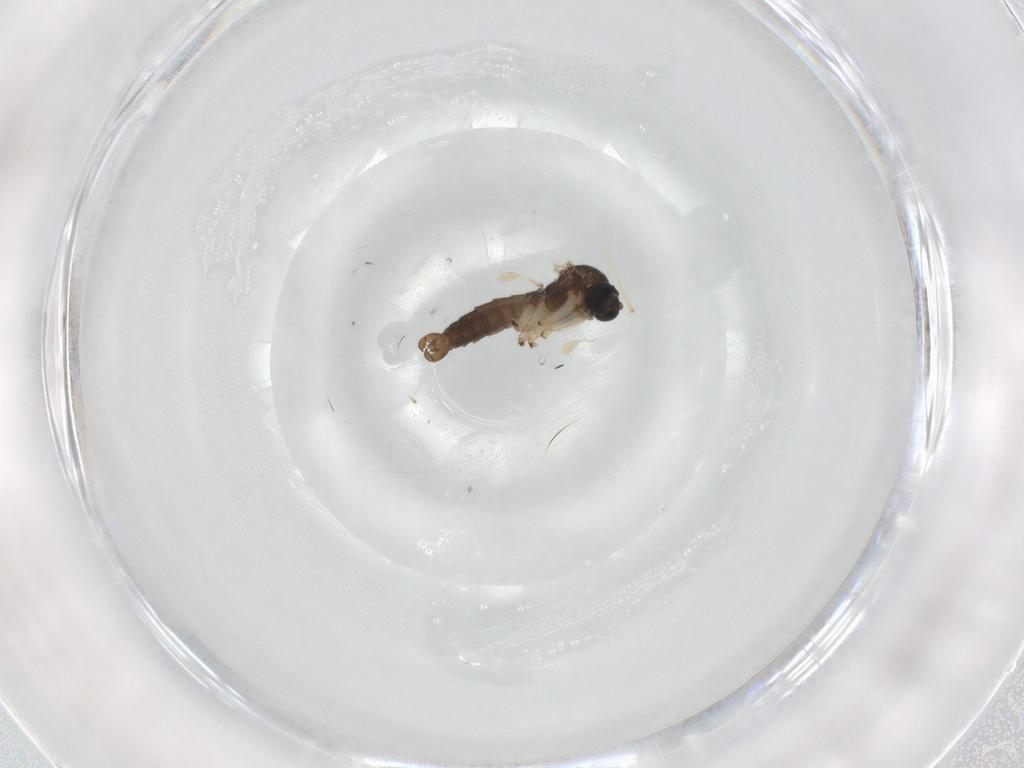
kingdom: Animalia
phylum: Arthropoda
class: Insecta
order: Diptera
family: Sciaridae
